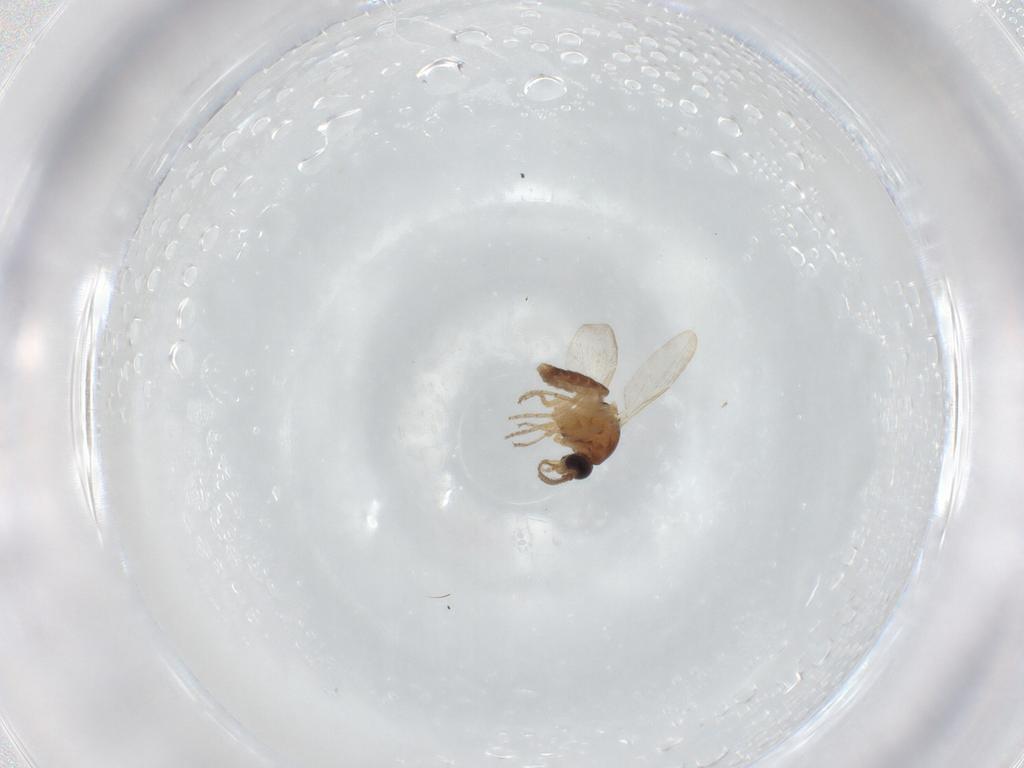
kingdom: Animalia
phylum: Arthropoda
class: Insecta
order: Diptera
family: Ceratopogonidae
